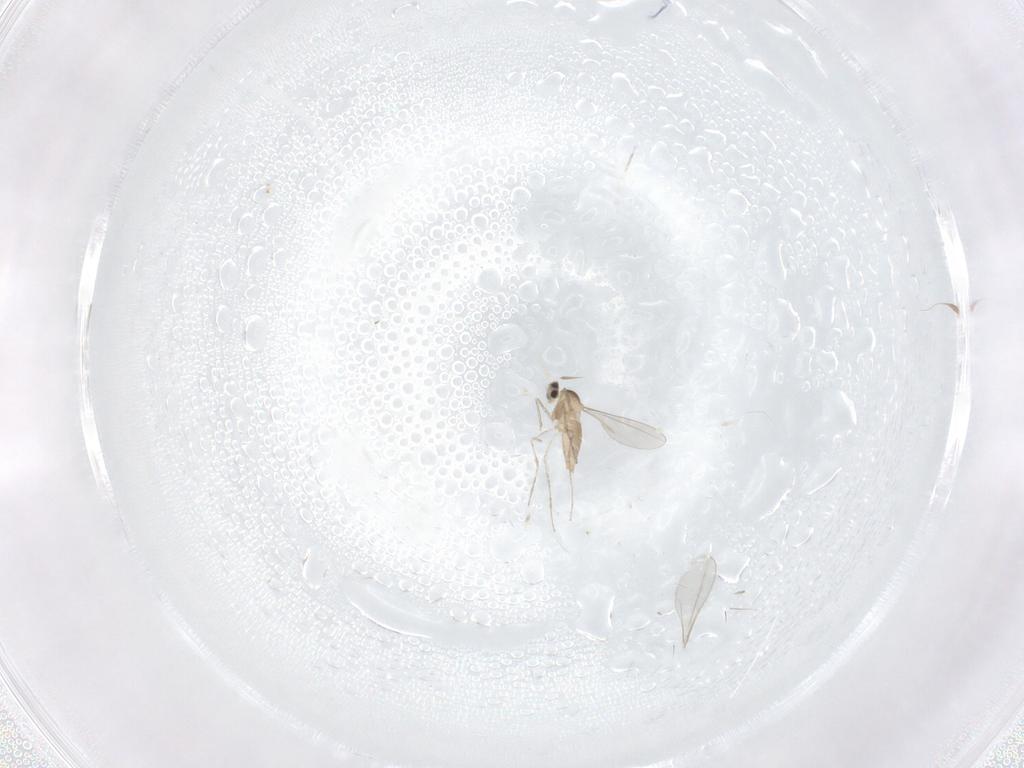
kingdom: Animalia
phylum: Arthropoda
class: Insecta
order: Diptera
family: Cecidomyiidae
